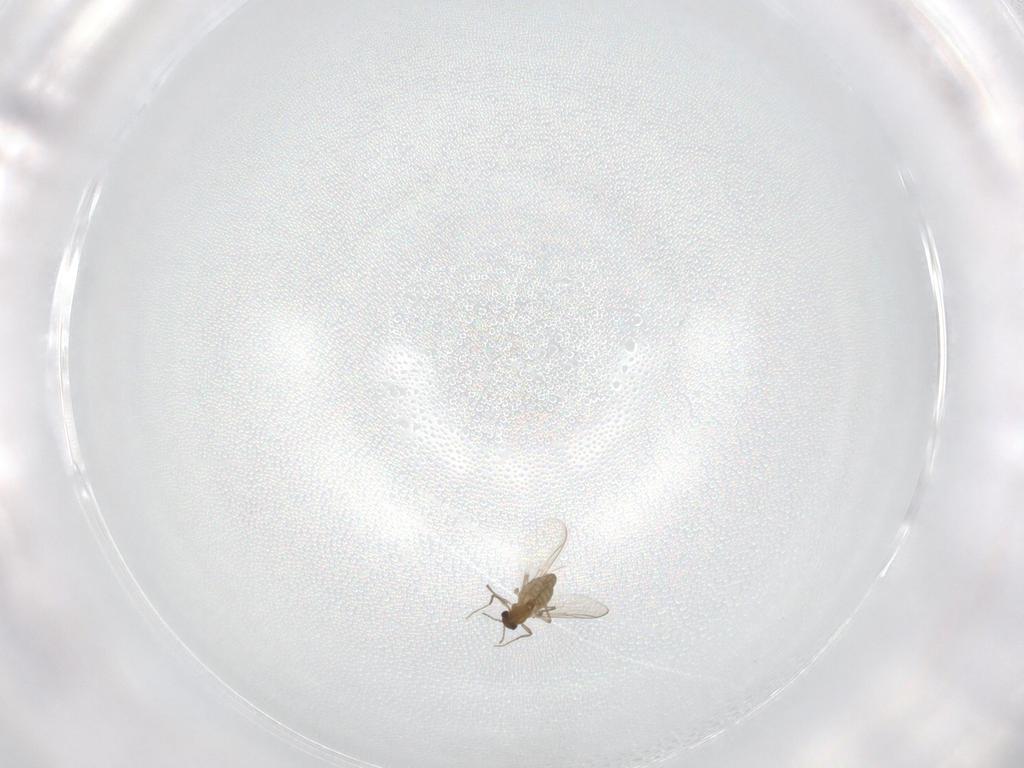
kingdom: Animalia
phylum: Arthropoda
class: Insecta
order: Diptera
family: Chironomidae
